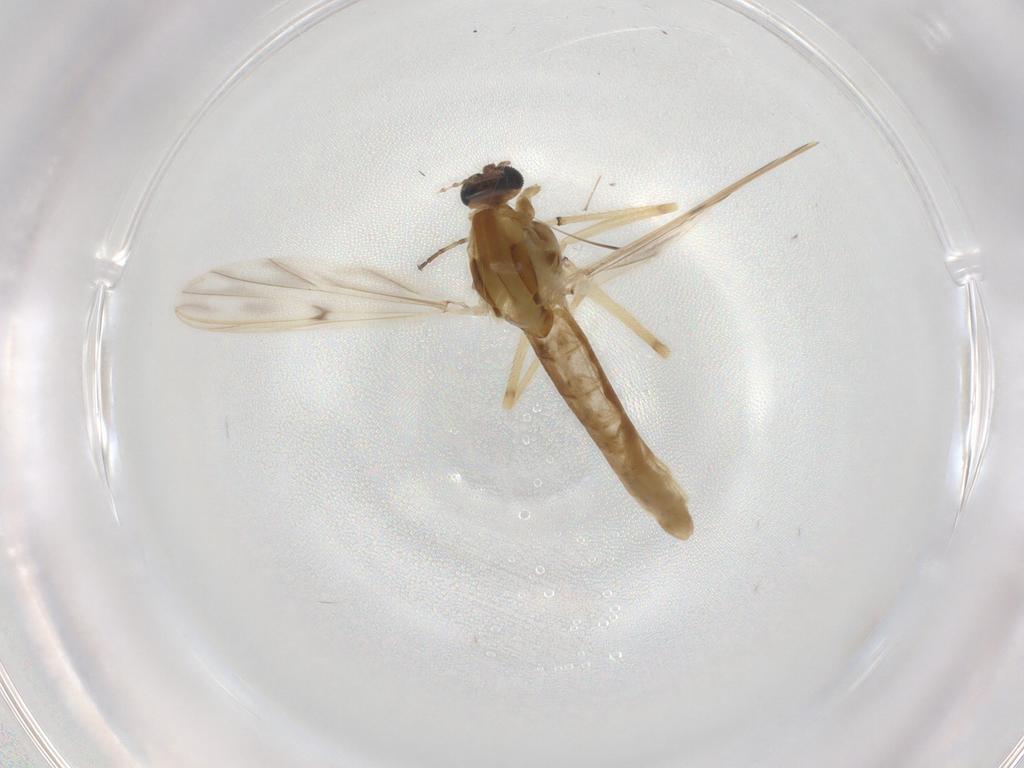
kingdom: Animalia
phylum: Arthropoda
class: Insecta
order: Diptera
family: Chironomidae
